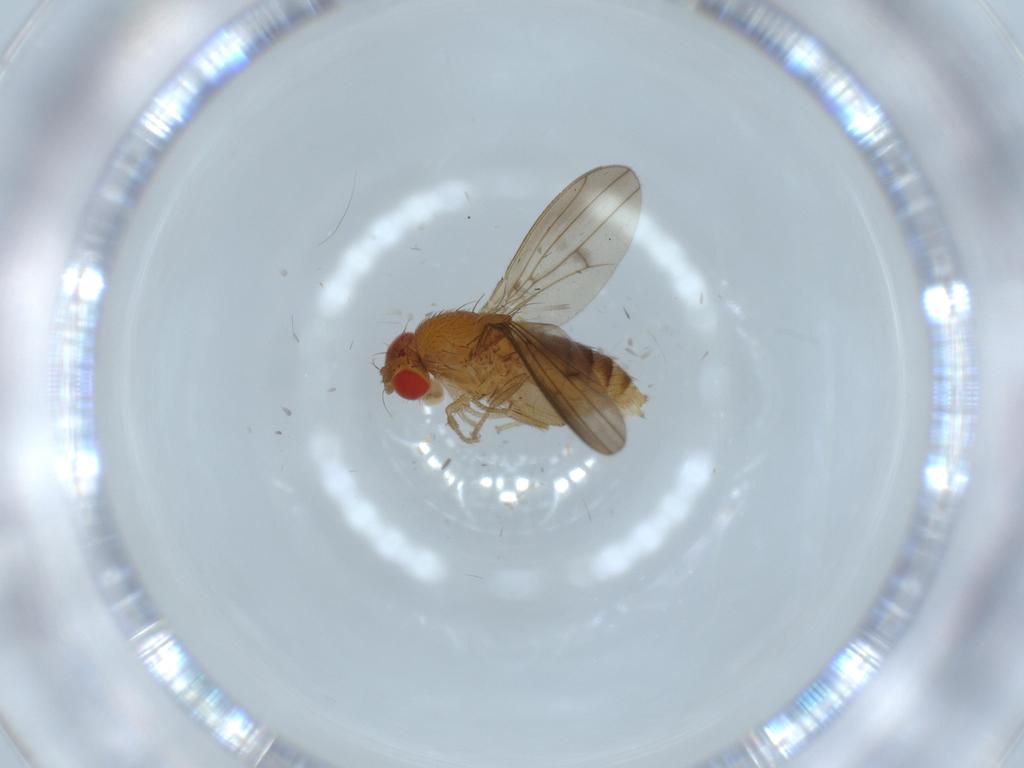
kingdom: Animalia
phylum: Arthropoda
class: Insecta
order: Diptera
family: Drosophilidae
